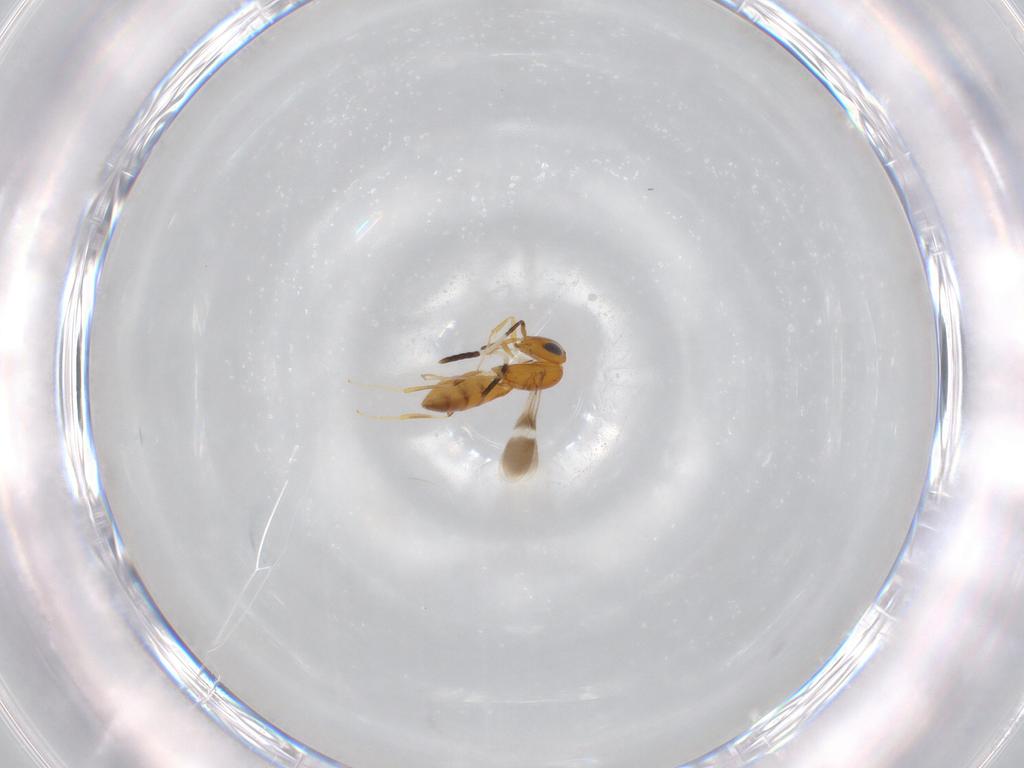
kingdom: Animalia
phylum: Arthropoda
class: Insecta
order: Hymenoptera
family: Scelionidae
